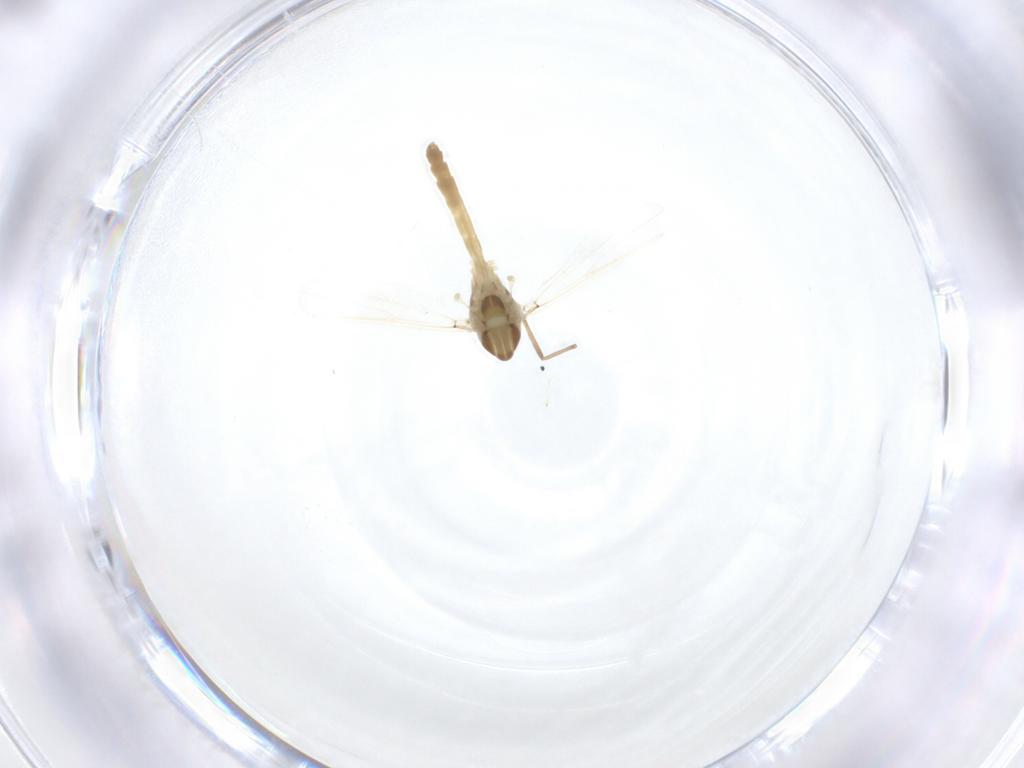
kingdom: Animalia
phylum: Arthropoda
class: Insecta
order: Diptera
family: Chironomidae
